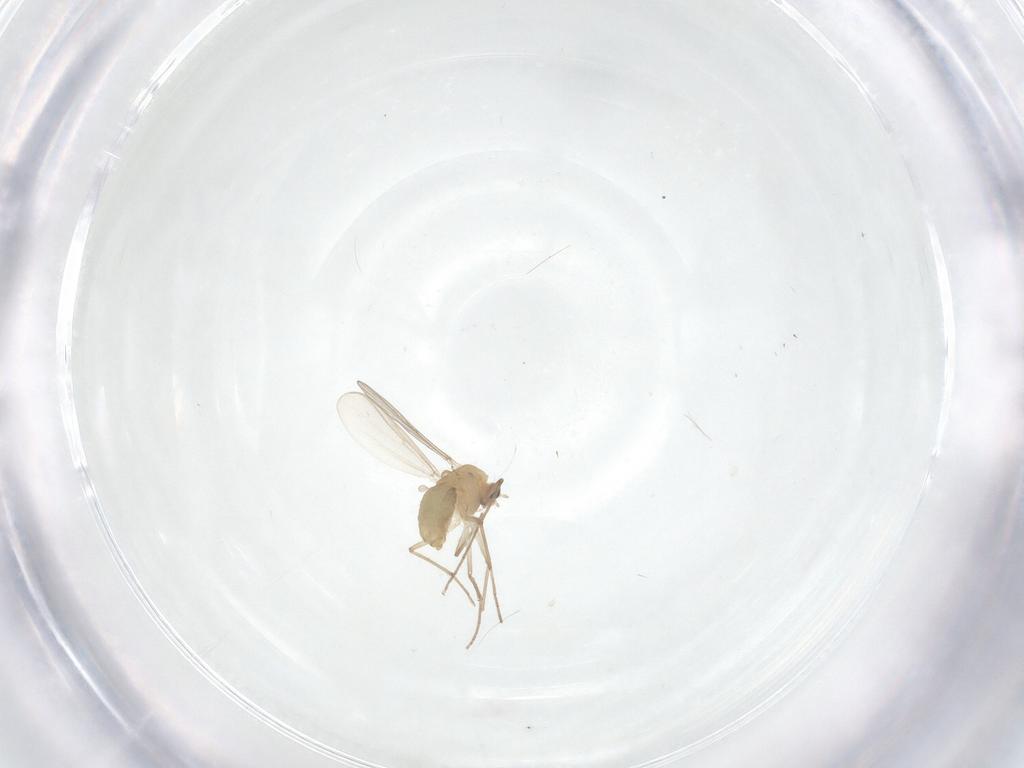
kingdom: Animalia
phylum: Arthropoda
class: Insecta
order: Diptera
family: Chironomidae
